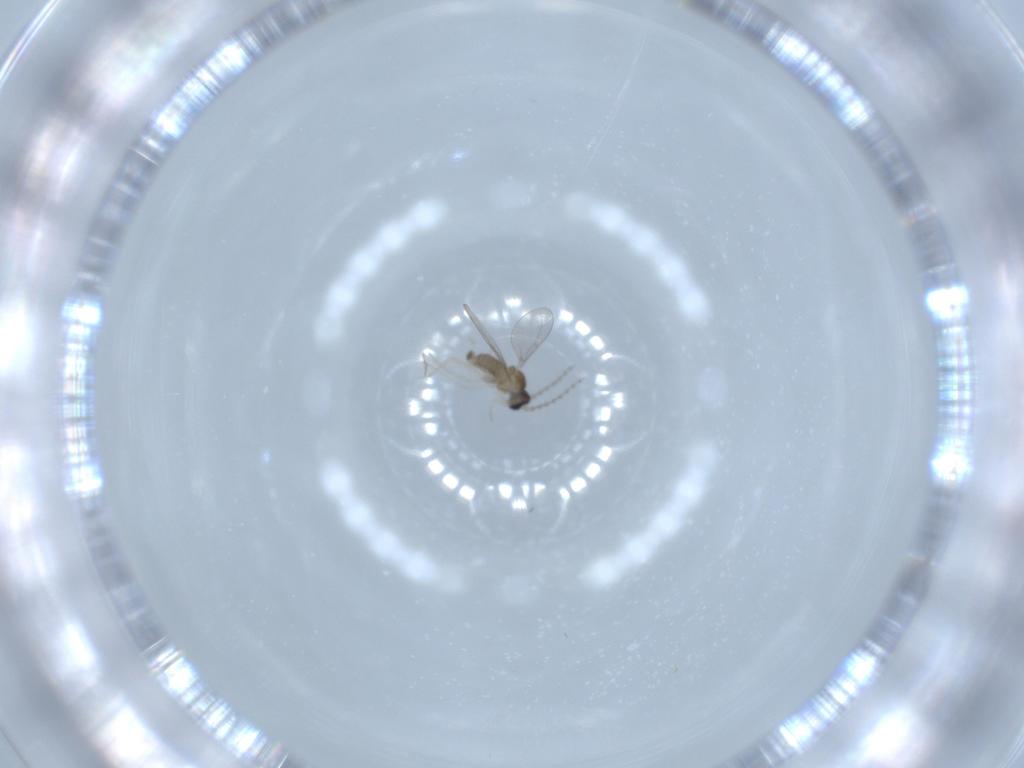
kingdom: Animalia
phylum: Arthropoda
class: Insecta
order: Diptera
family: Cecidomyiidae
